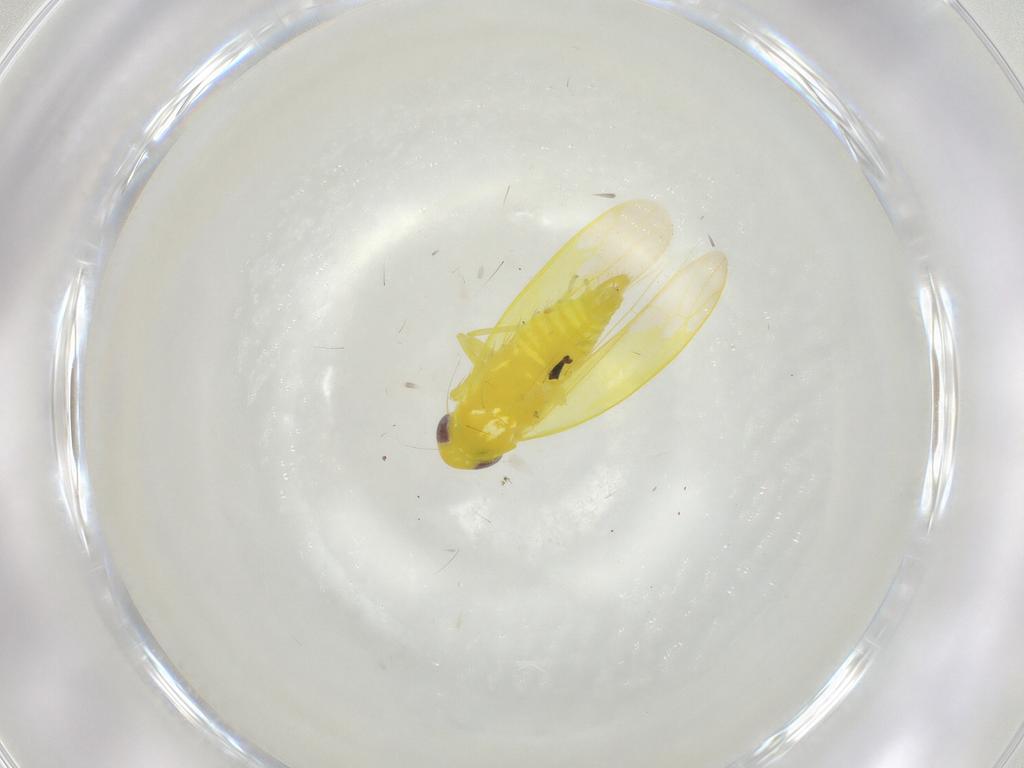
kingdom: Animalia
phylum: Arthropoda
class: Insecta
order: Hemiptera
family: Cicadellidae
